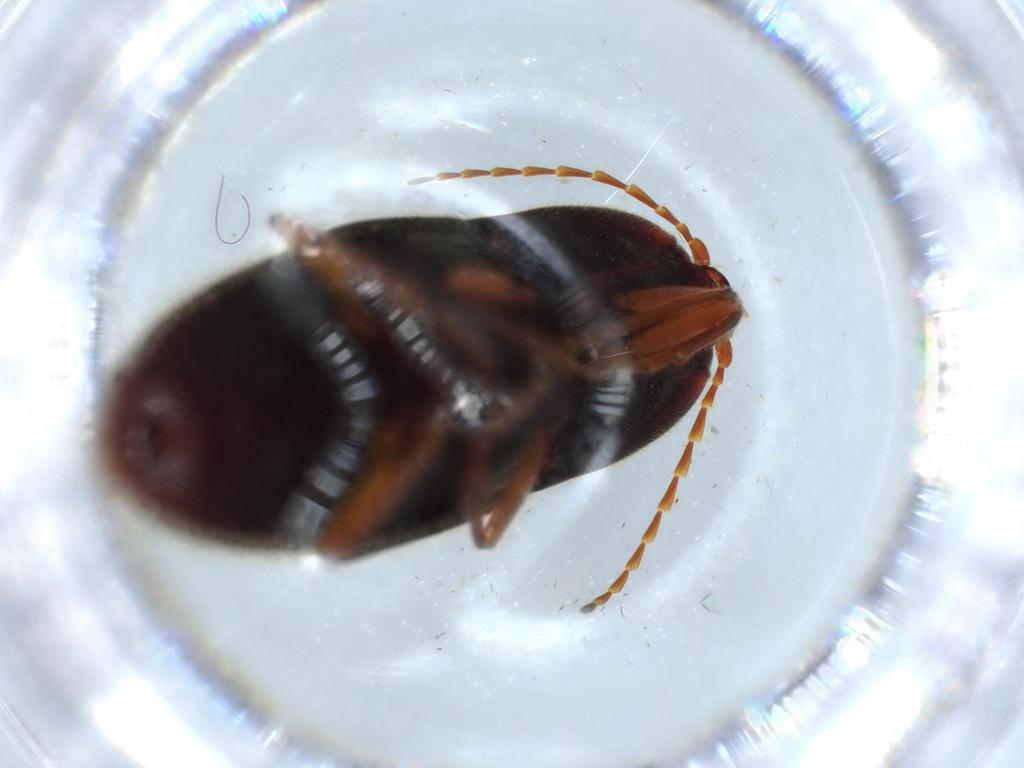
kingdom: Animalia
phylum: Arthropoda
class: Insecta
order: Coleoptera
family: Elateridae
